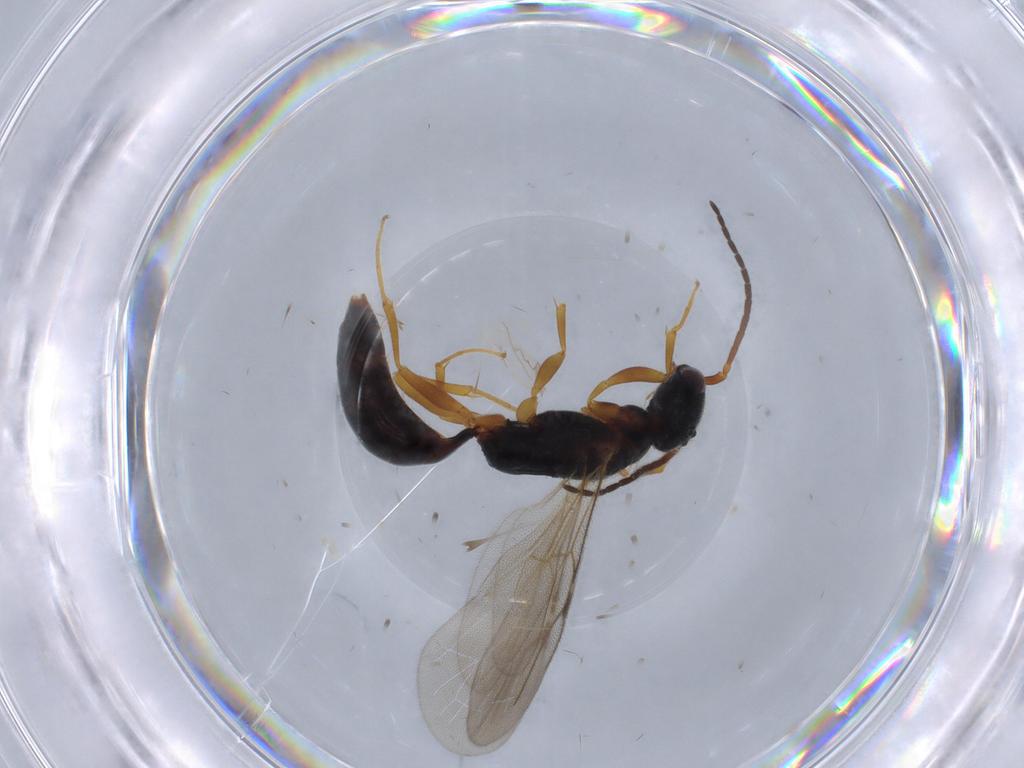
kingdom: Animalia
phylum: Arthropoda
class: Insecta
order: Hymenoptera
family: Bethylidae
